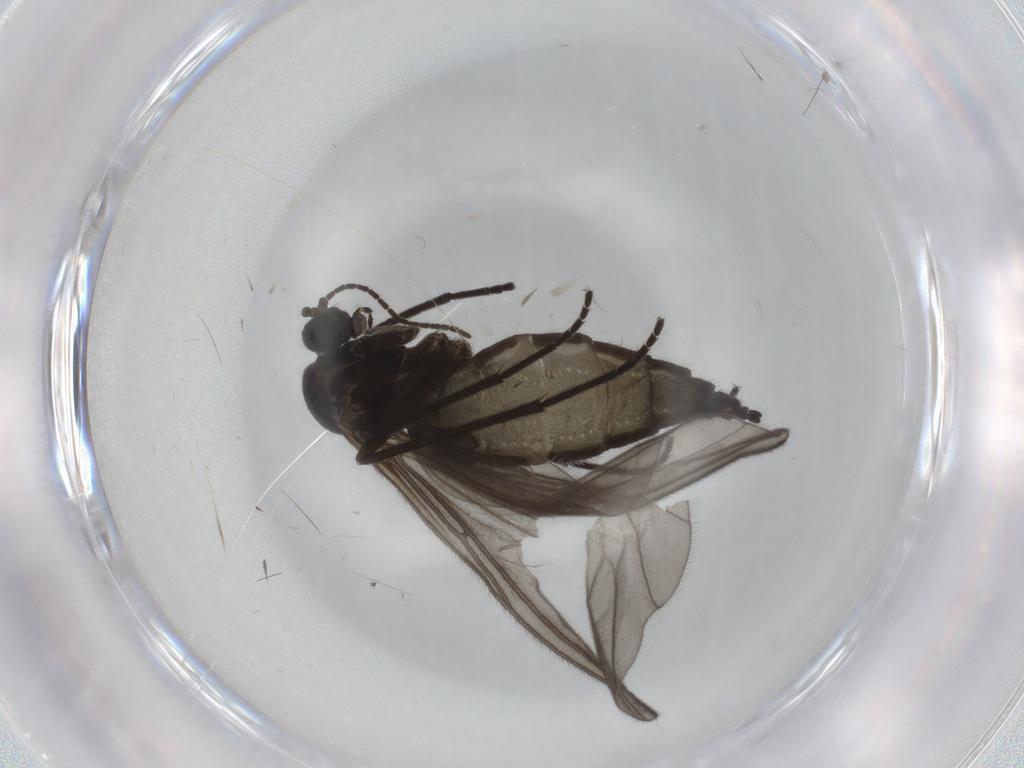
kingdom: Animalia
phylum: Arthropoda
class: Insecta
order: Diptera
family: Sciaridae
